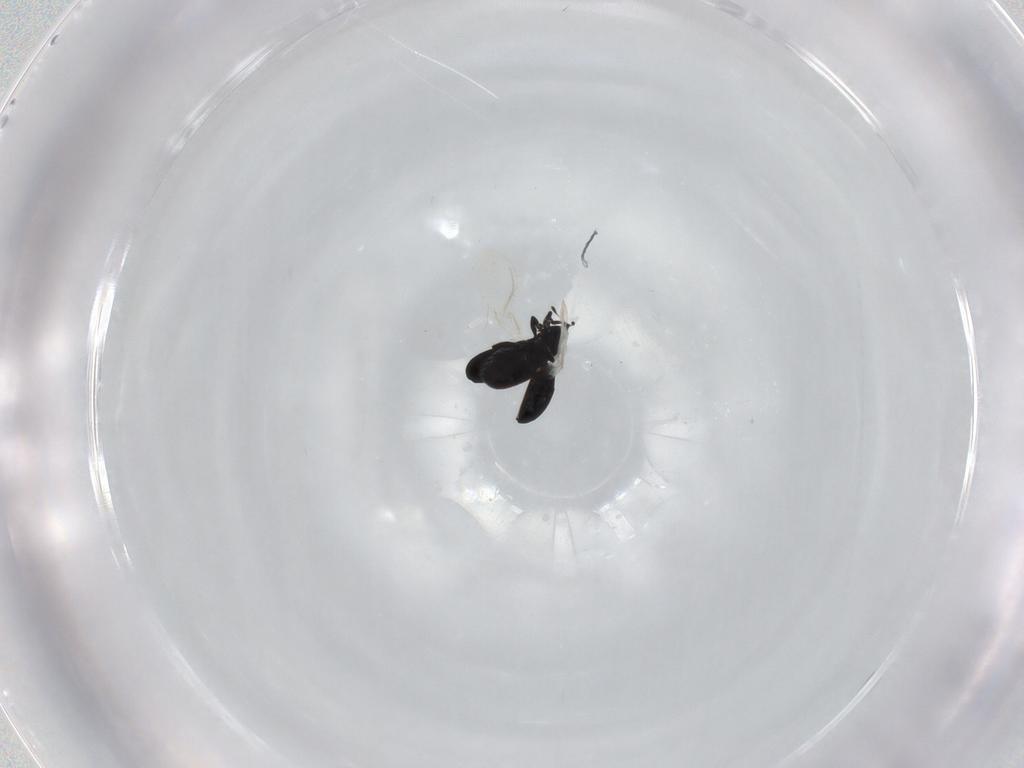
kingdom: Animalia
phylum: Arthropoda
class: Insecta
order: Coleoptera
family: Curculionidae
